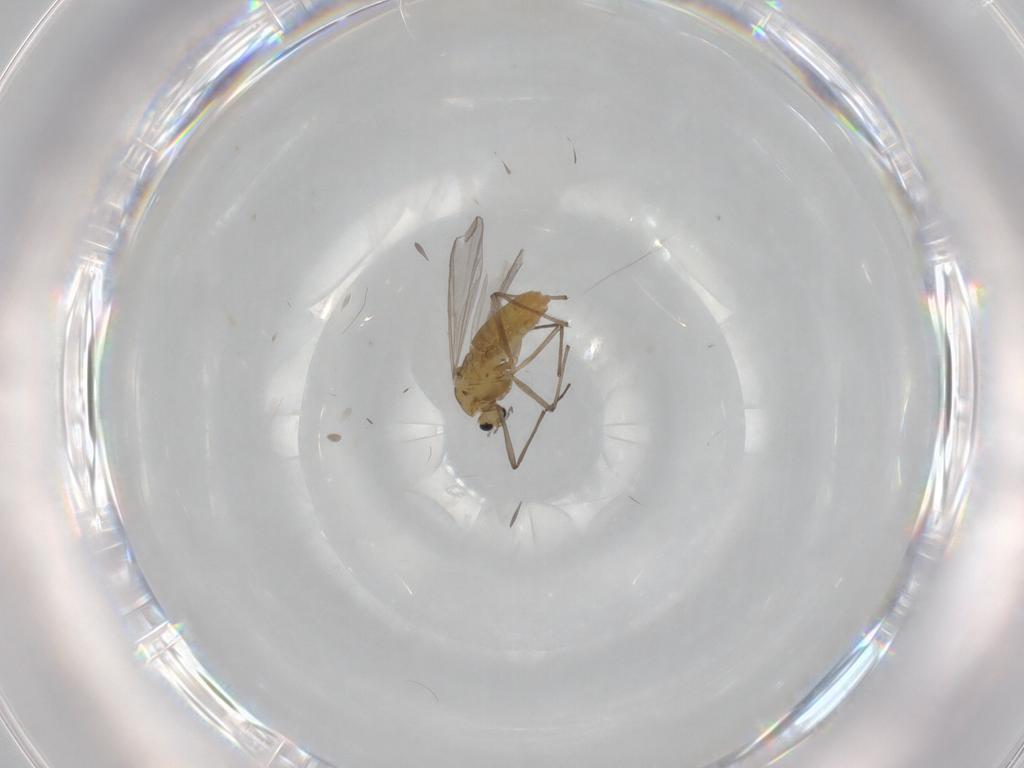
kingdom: Animalia
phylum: Arthropoda
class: Insecta
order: Diptera
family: Chironomidae
